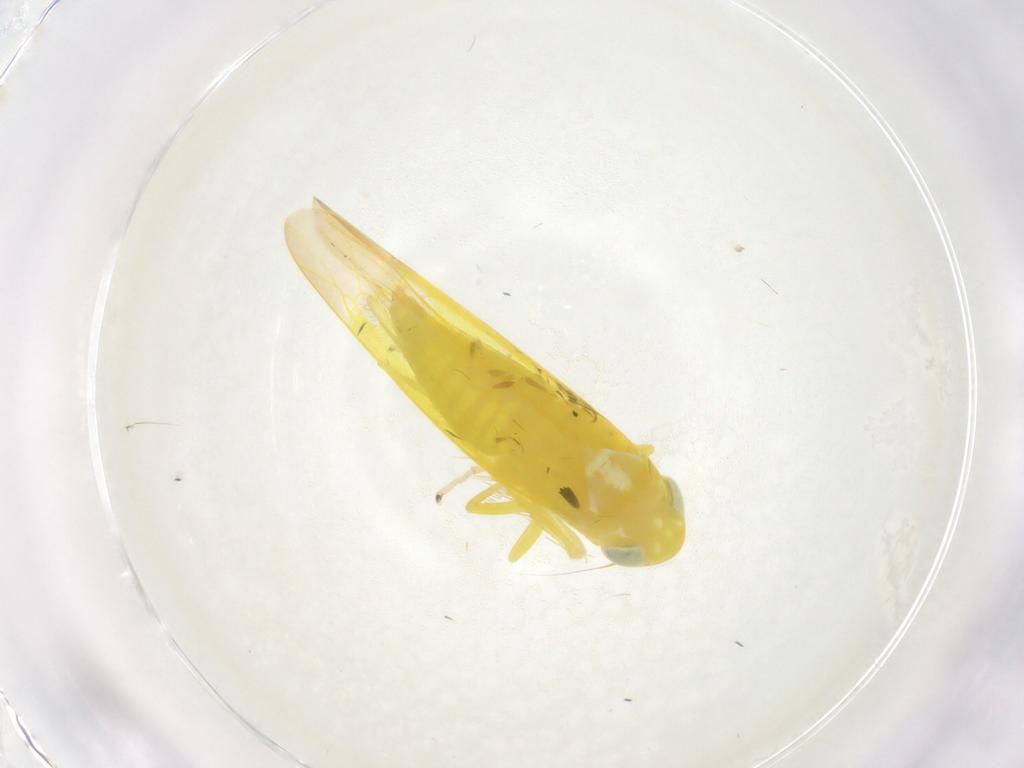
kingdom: Animalia
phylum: Arthropoda
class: Insecta
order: Hemiptera
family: Cicadellidae
